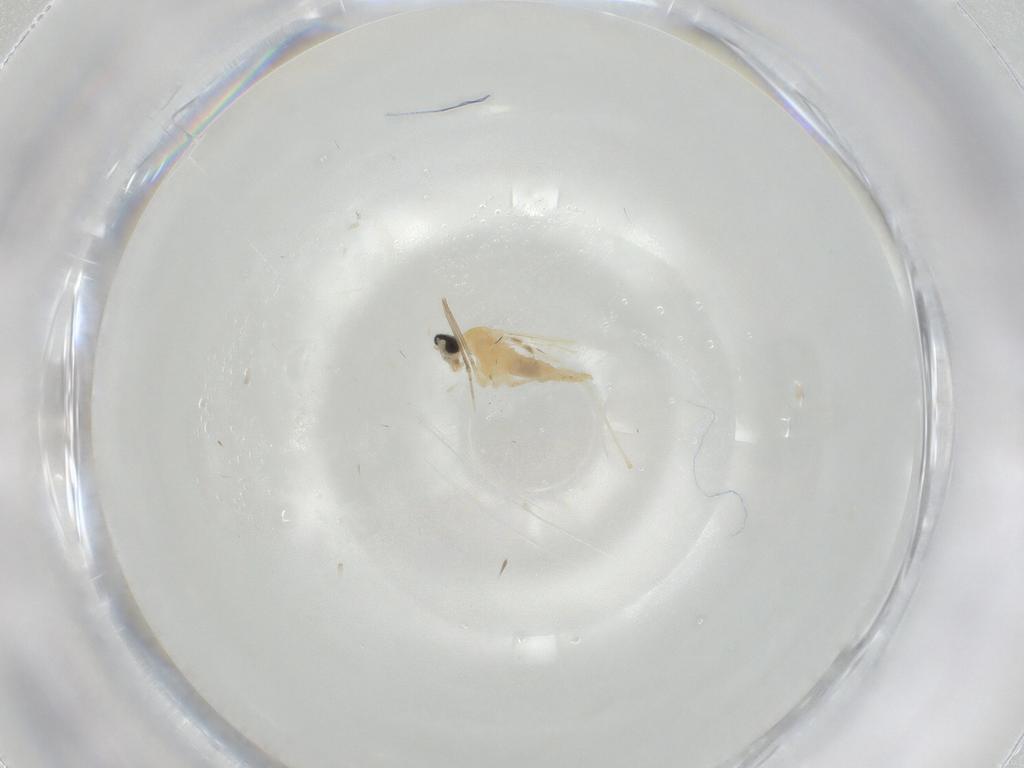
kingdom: Animalia
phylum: Arthropoda
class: Insecta
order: Diptera
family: Cecidomyiidae
